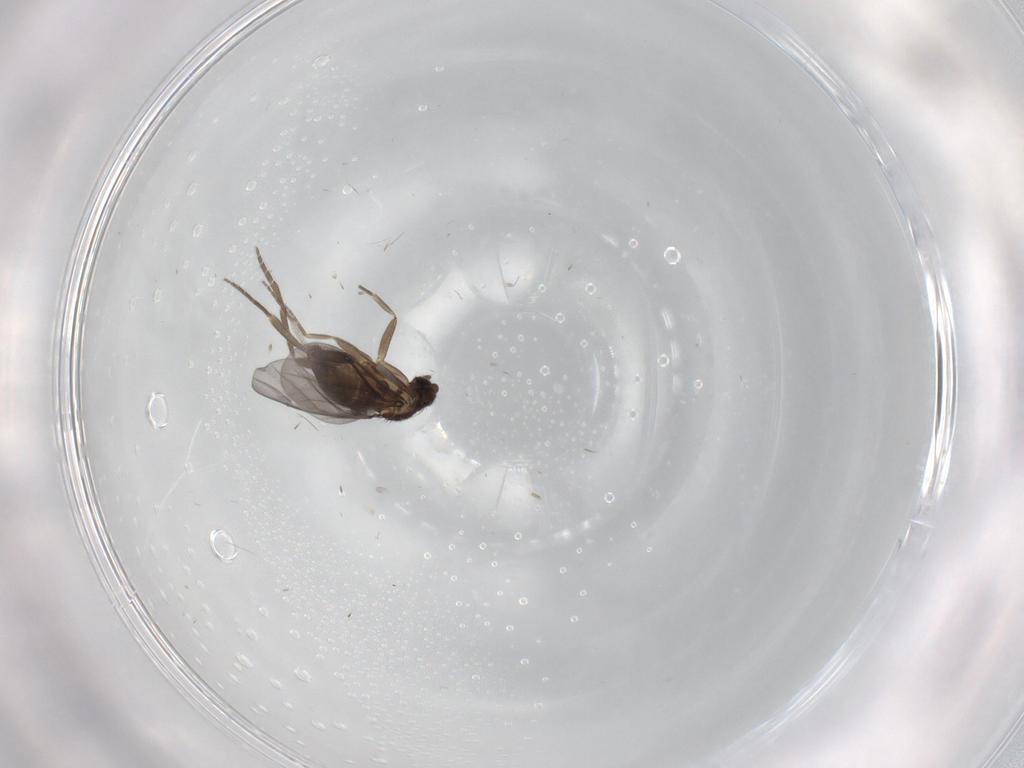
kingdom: Animalia
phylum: Arthropoda
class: Insecta
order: Diptera
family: Phoridae
